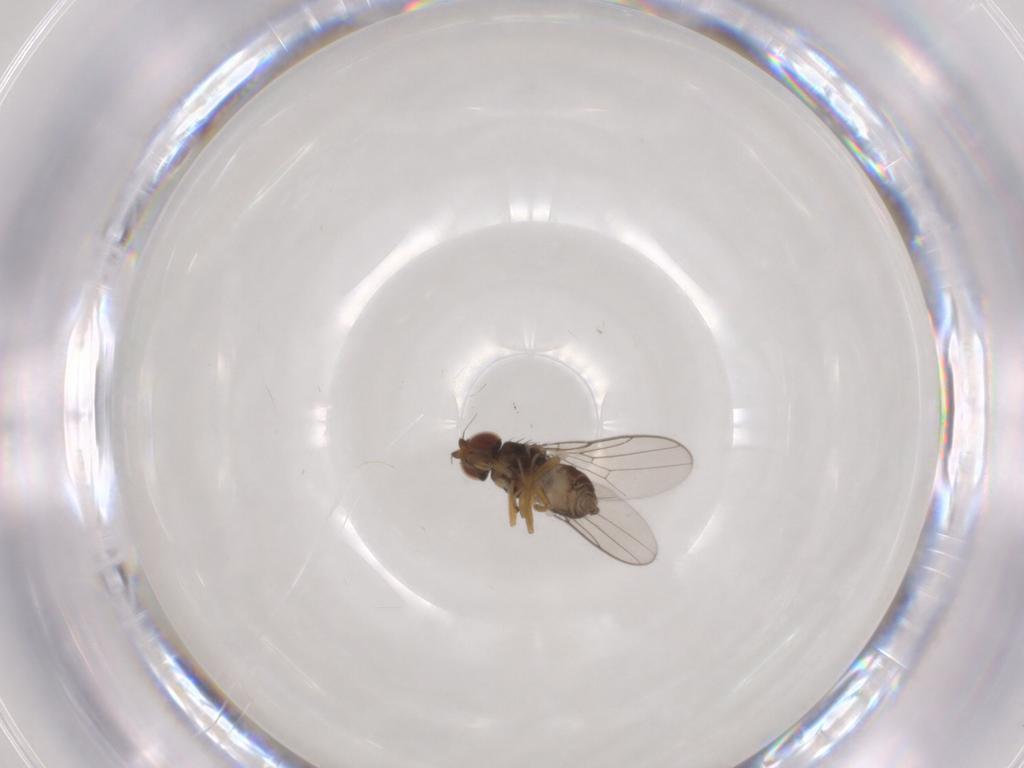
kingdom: Animalia
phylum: Arthropoda
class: Insecta
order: Diptera
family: Chloropidae
